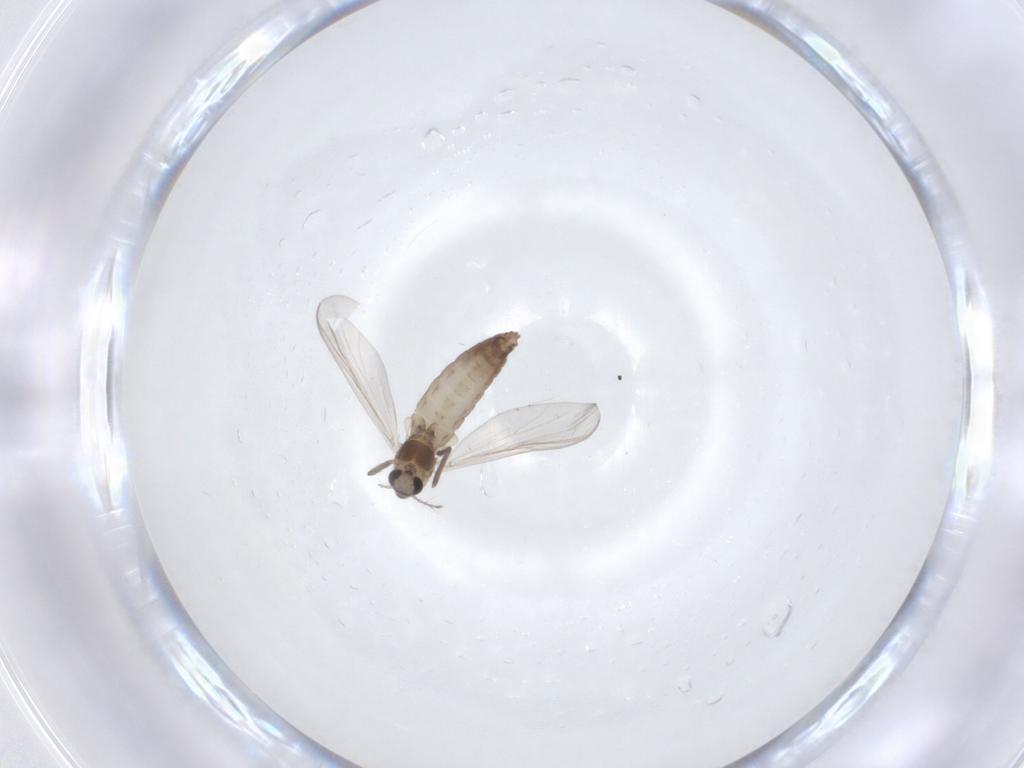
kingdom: Animalia
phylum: Arthropoda
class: Insecta
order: Diptera
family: Chironomidae
